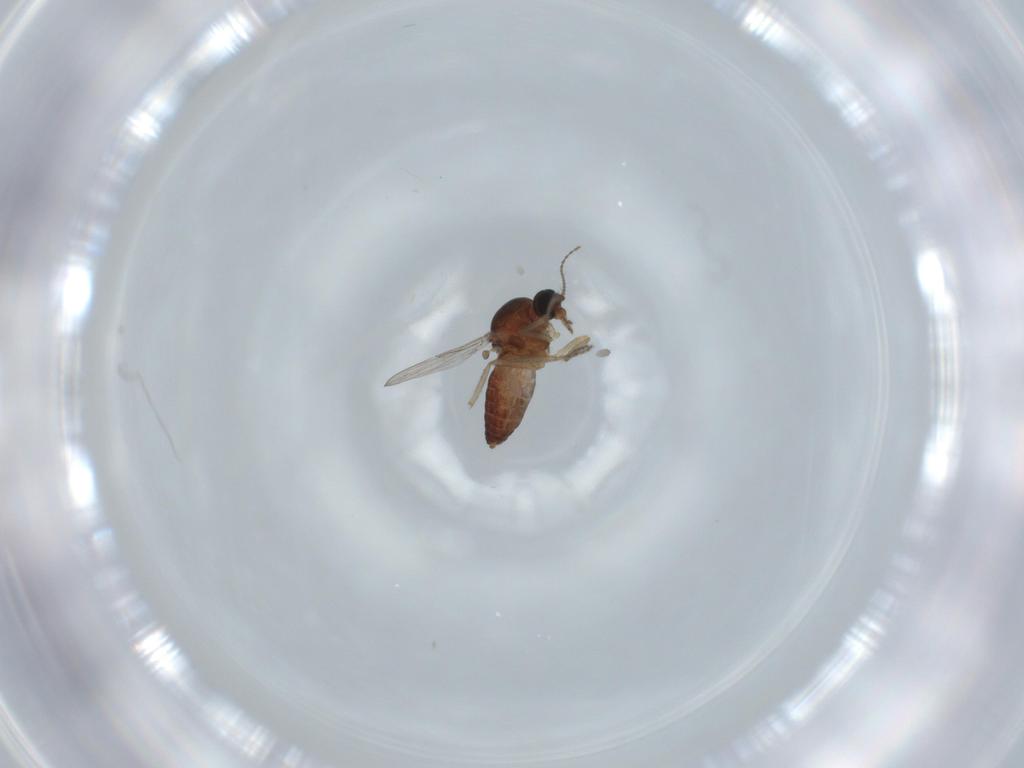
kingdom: Animalia
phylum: Arthropoda
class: Insecta
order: Diptera
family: Ceratopogonidae
